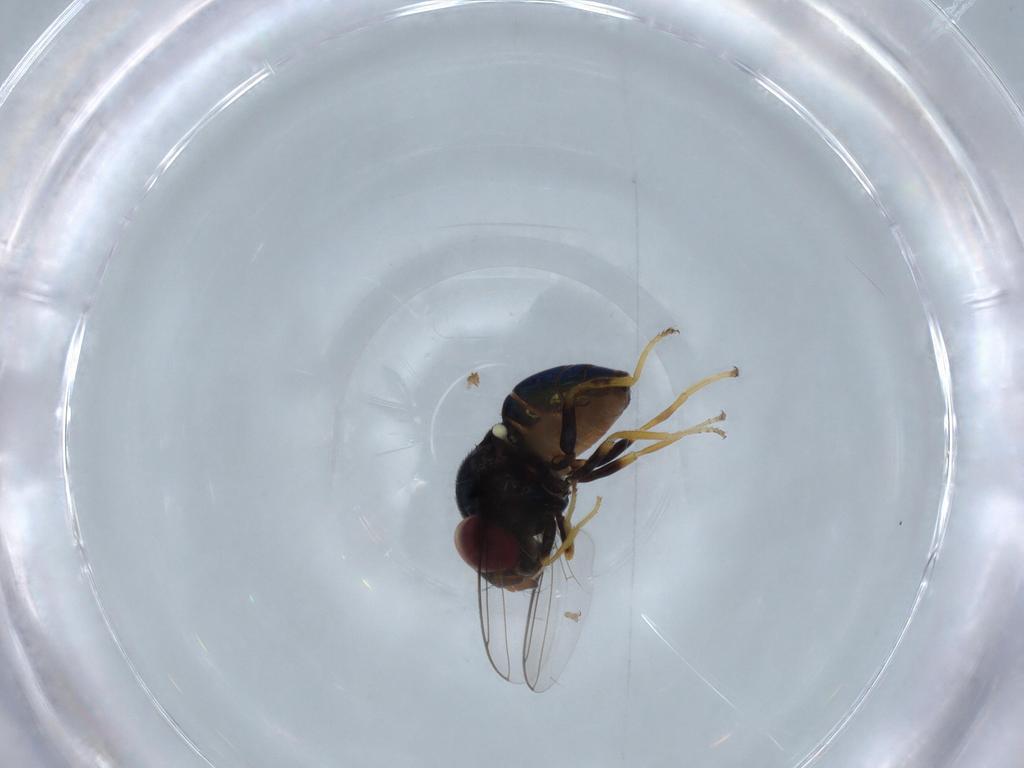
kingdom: Animalia
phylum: Arthropoda
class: Insecta
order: Diptera
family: Chloropidae
